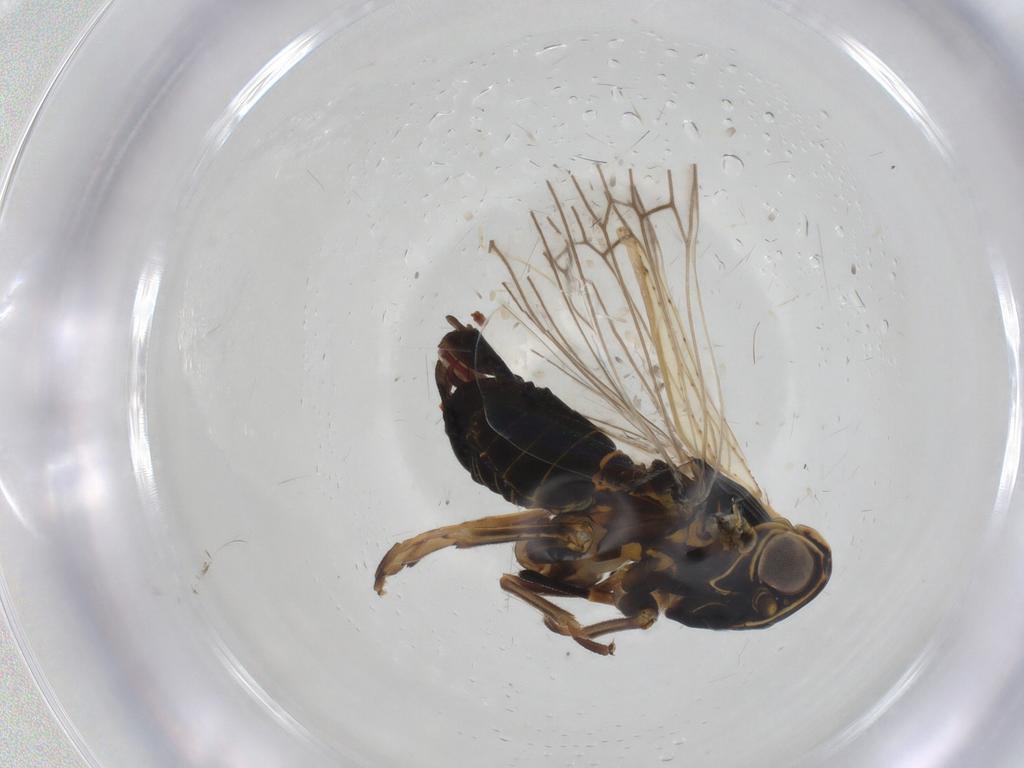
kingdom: Animalia
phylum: Arthropoda
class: Insecta
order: Hemiptera
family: Cixiidae
